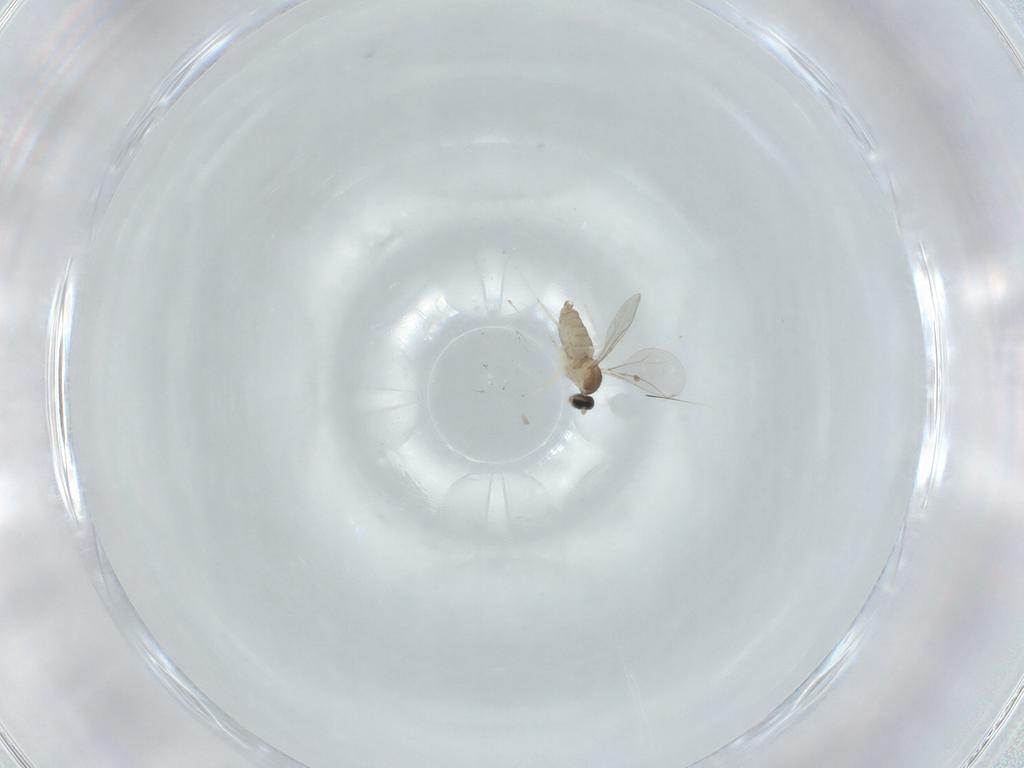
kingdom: Animalia
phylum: Arthropoda
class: Insecta
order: Diptera
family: Cecidomyiidae
